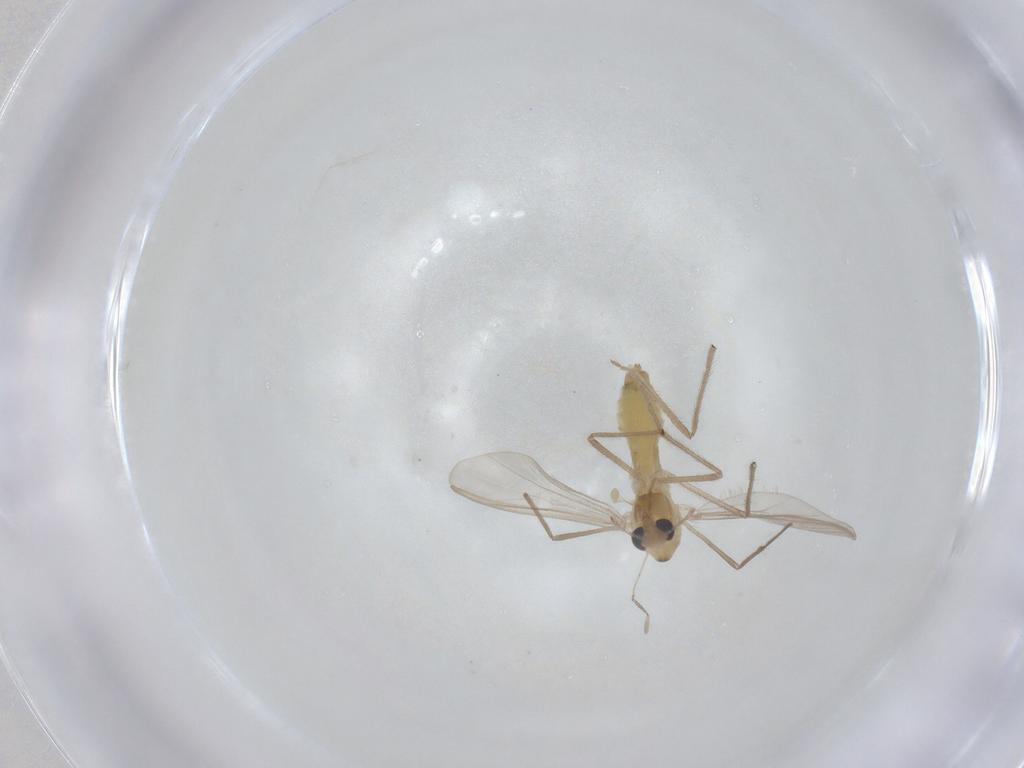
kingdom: Animalia
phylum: Arthropoda
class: Insecta
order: Diptera
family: Chironomidae
